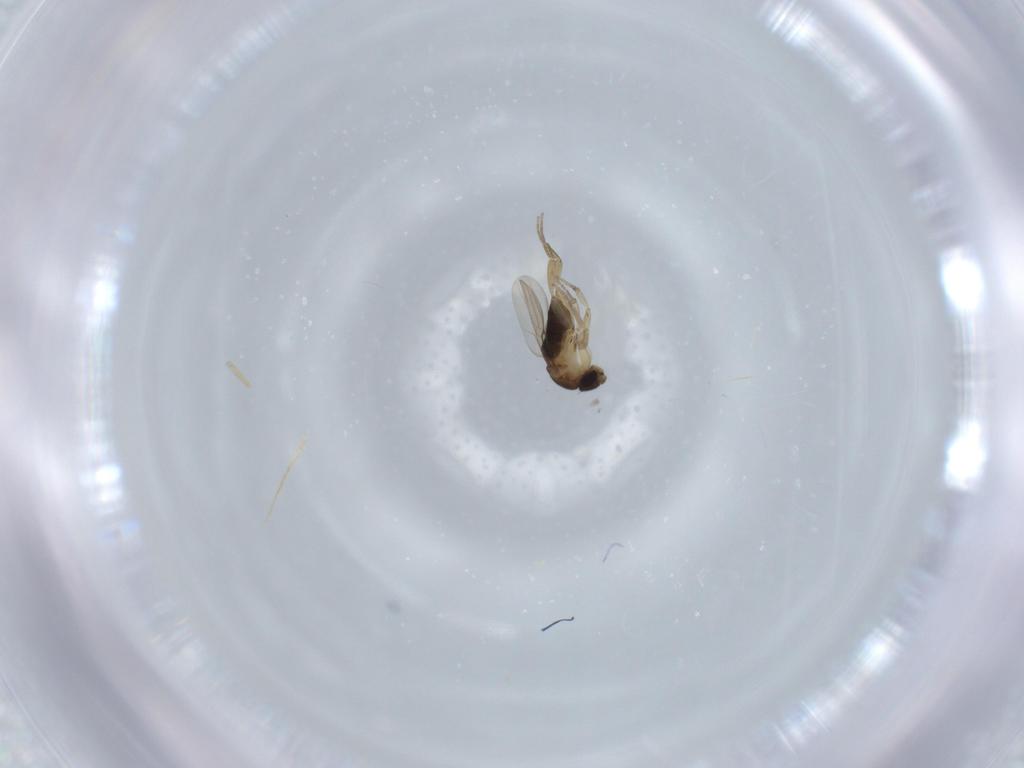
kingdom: Animalia
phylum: Arthropoda
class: Insecta
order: Diptera
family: Phoridae
